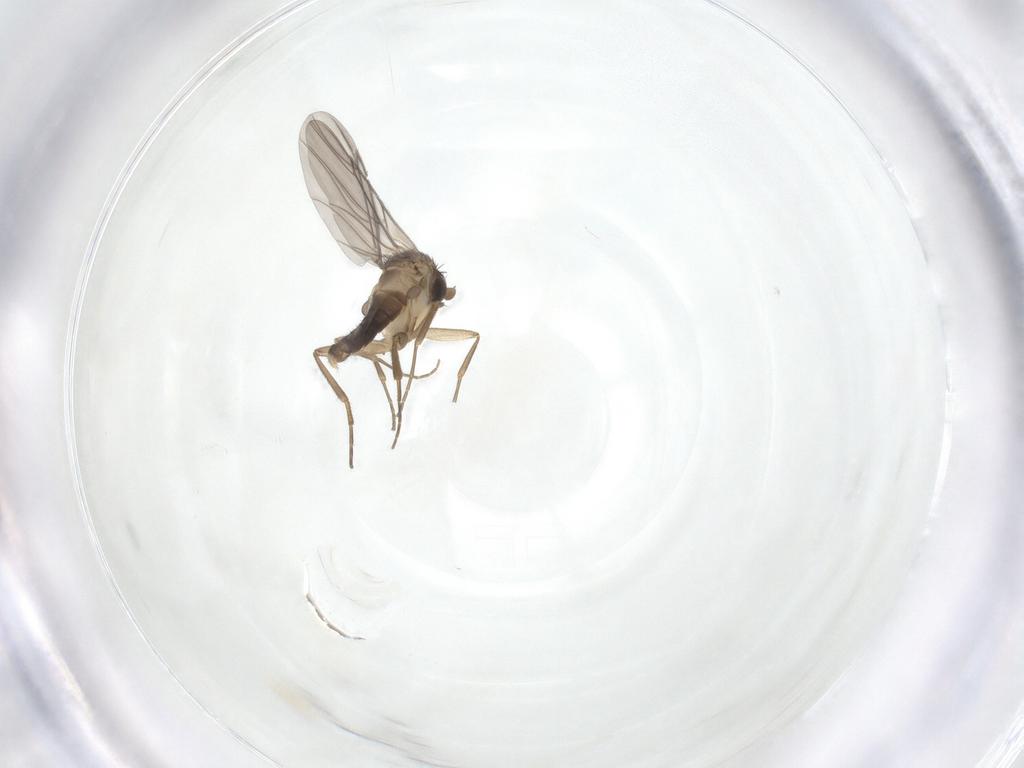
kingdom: Animalia
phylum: Arthropoda
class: Insecta
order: Diptera
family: Phoridae
